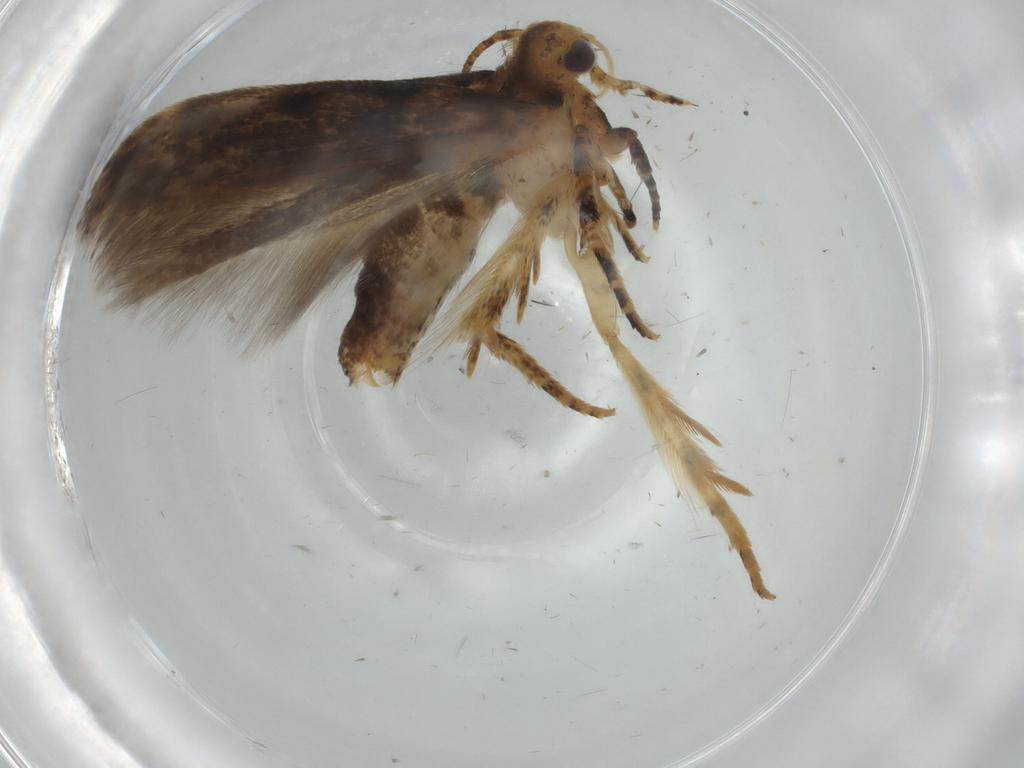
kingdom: Animalia
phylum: Arthropoda
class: Insecta
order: Lepidoptera
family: Gelechiidae
